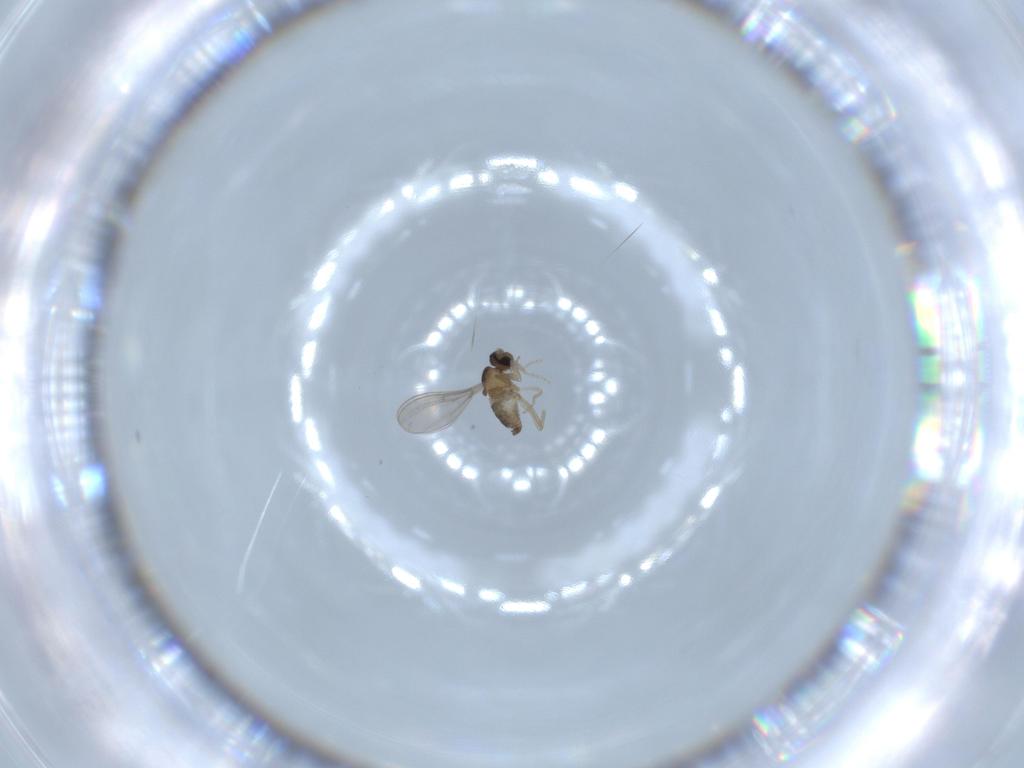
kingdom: Animalia
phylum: Arthropoda
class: Insecta
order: Diptera
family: Cecidomyiidae
